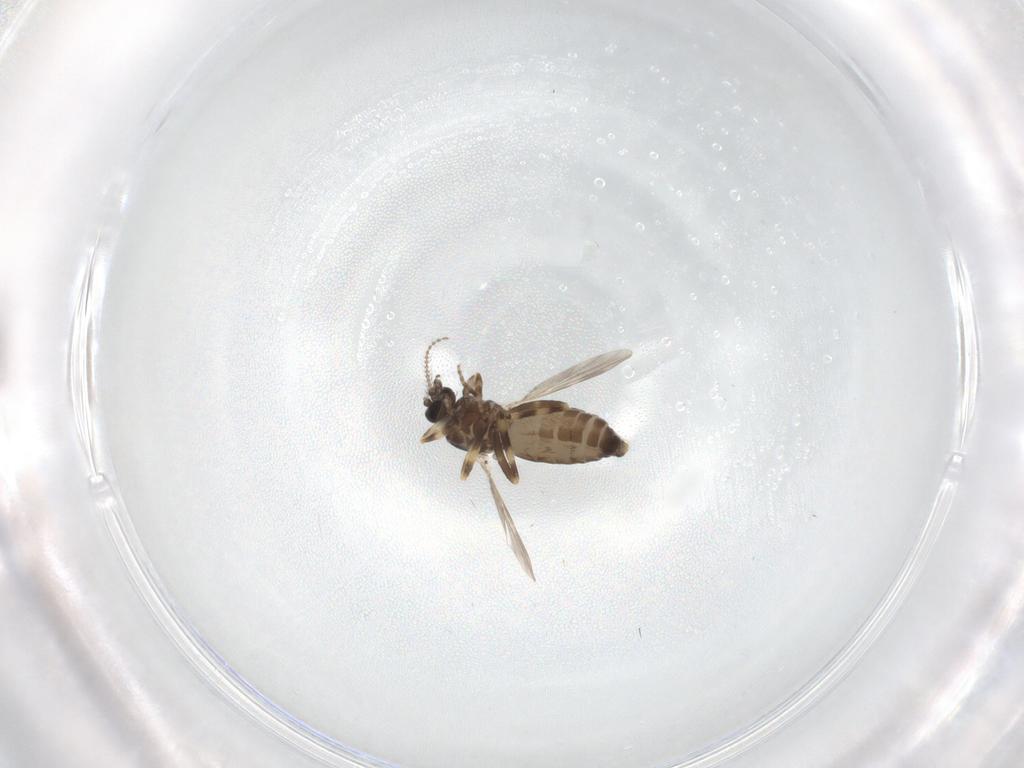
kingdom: Animalia
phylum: Arthropoda
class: Insecta
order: Diptera
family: Ceratopogonidae
